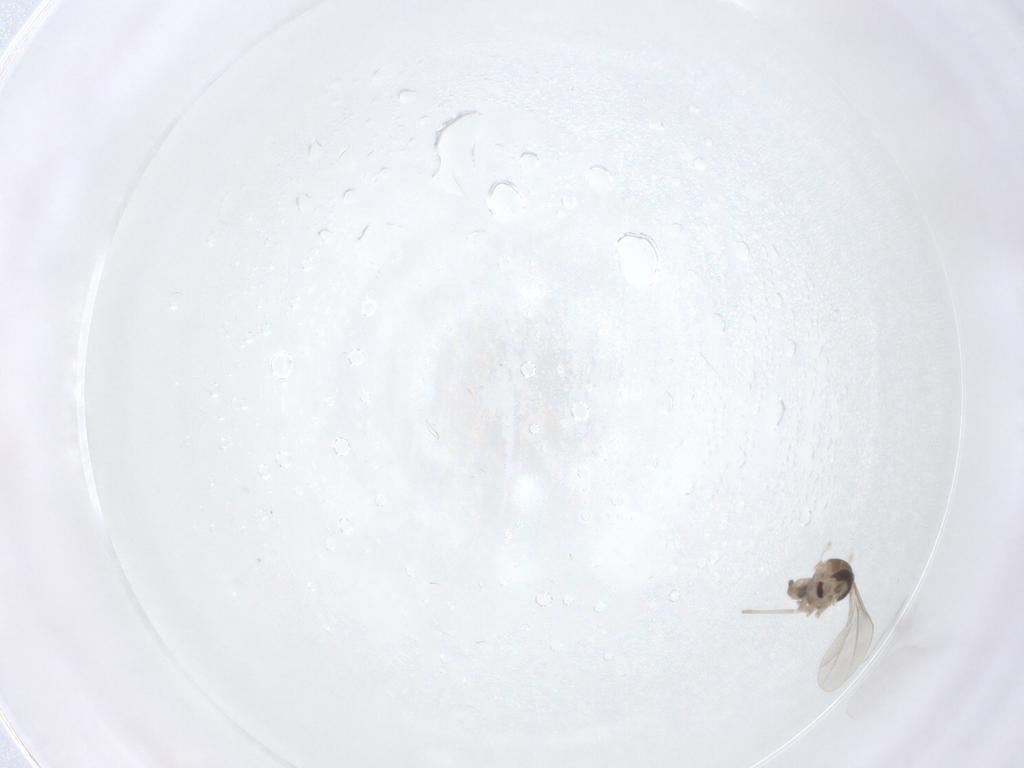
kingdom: Animalia
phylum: Arthropoda
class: Insecta
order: Diptera
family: Cecidomyiidae
